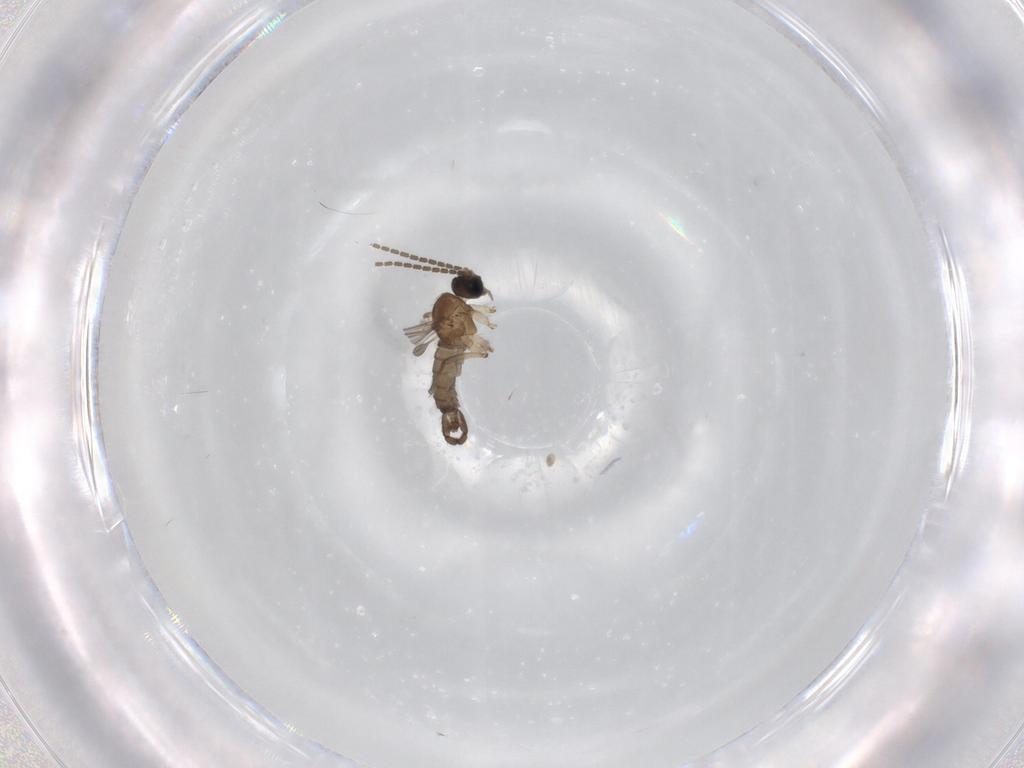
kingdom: Animalia
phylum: Arthropoda
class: Insecta
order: Diptera
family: Sciaridae
